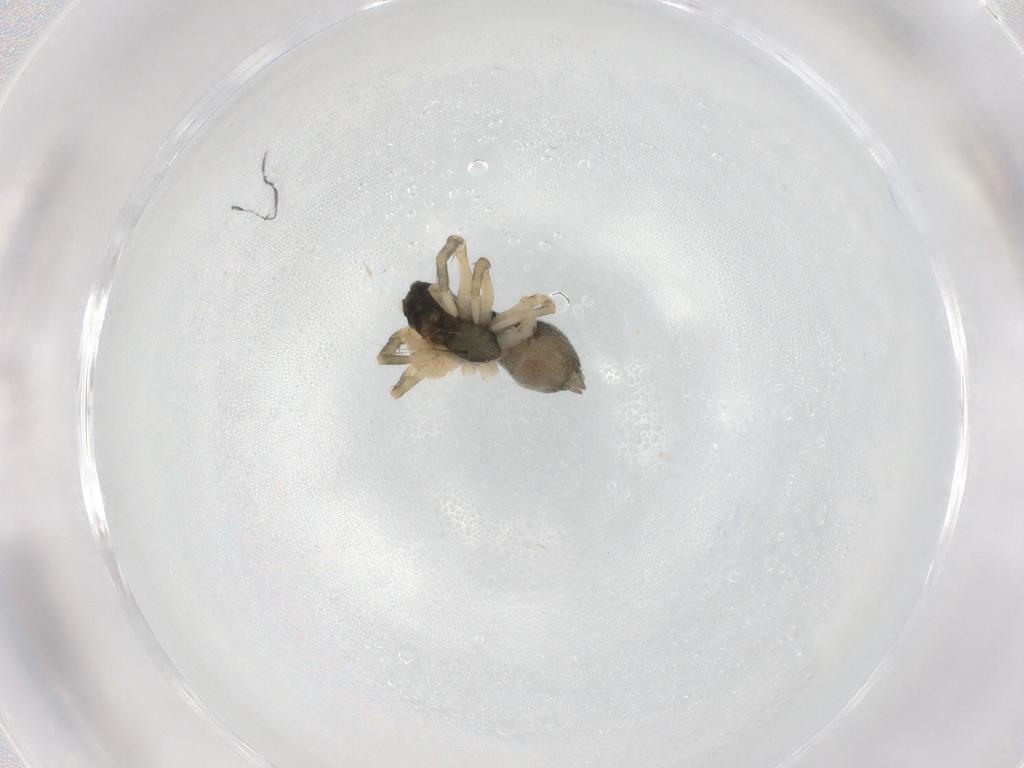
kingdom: Animalia
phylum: Arthropoda
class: Arachnida
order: Araneae
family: Lycosidae
